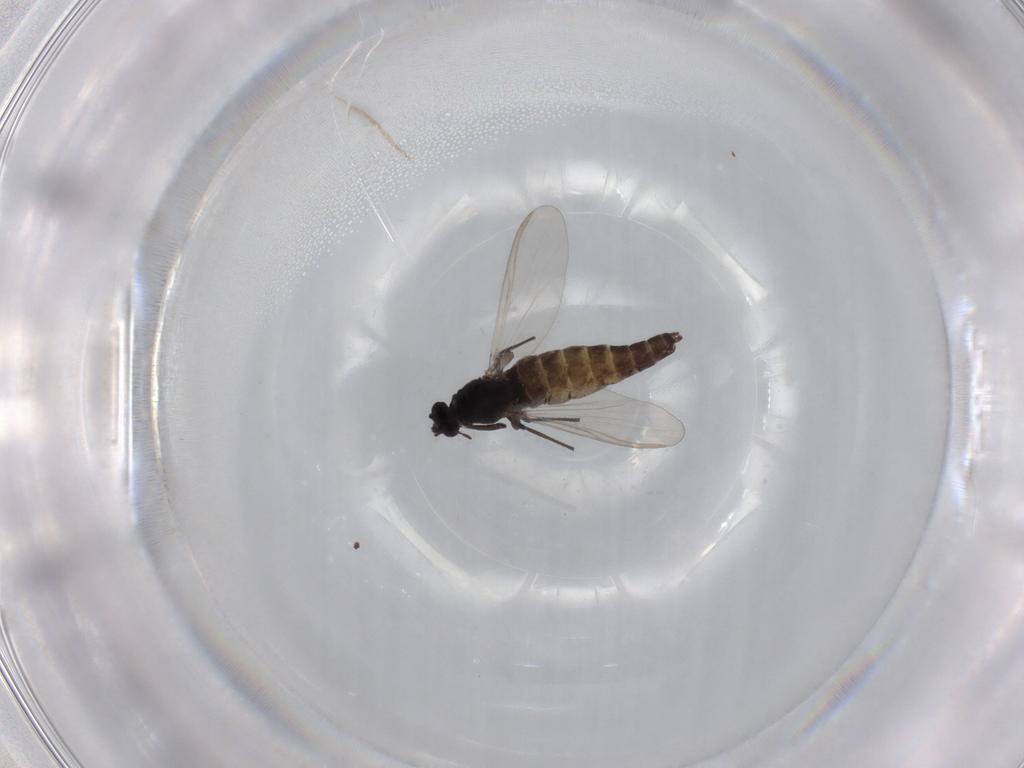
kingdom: Animalia
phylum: Arthropoda
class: Insecta
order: Diptera
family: Chironomidae
